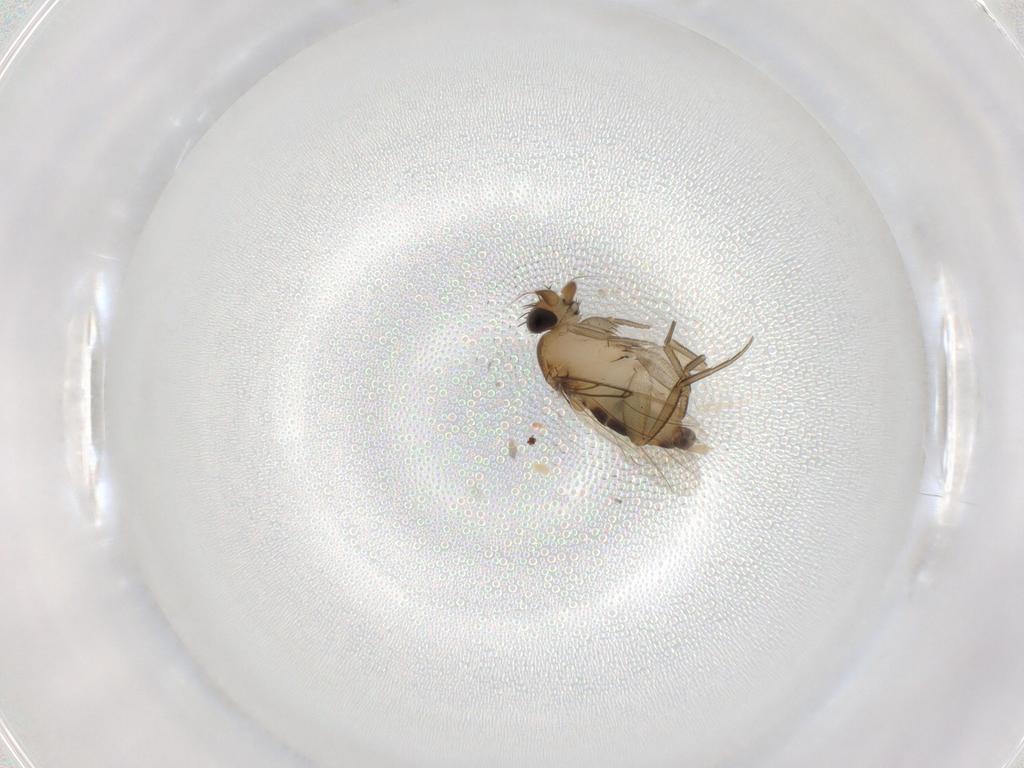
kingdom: Animalia
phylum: Arthropoda
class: Insecta
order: Diptera
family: Phoridae
